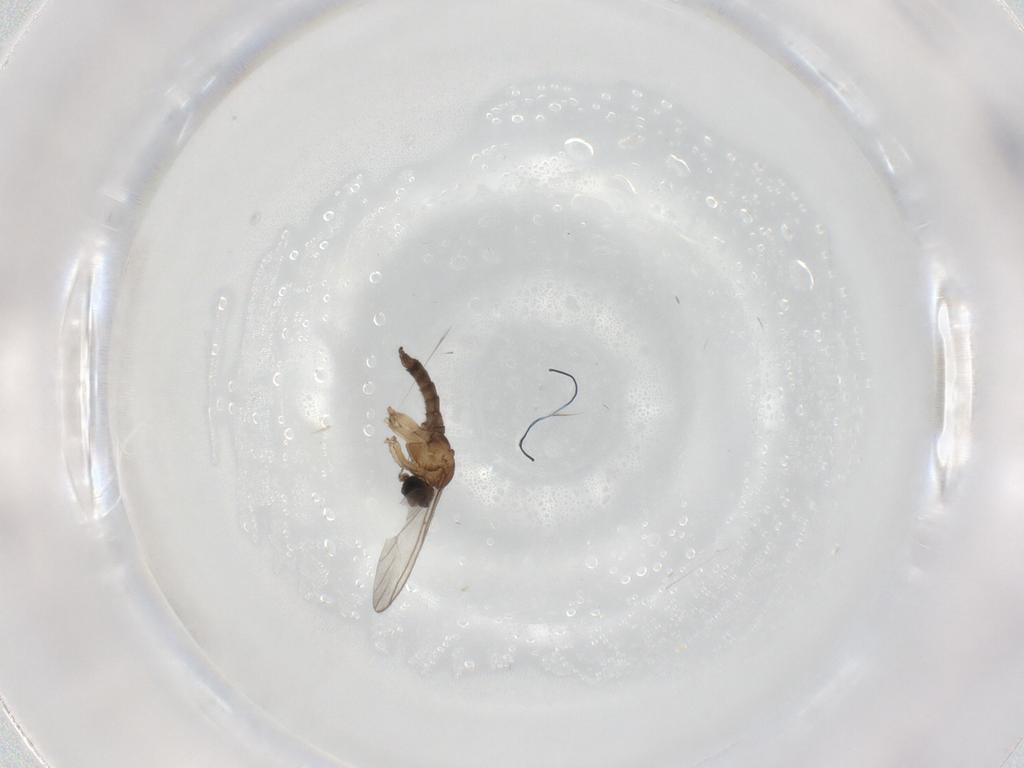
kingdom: Animalia
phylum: Arthropoda
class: Insecta
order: Diptera
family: Sciaridae
